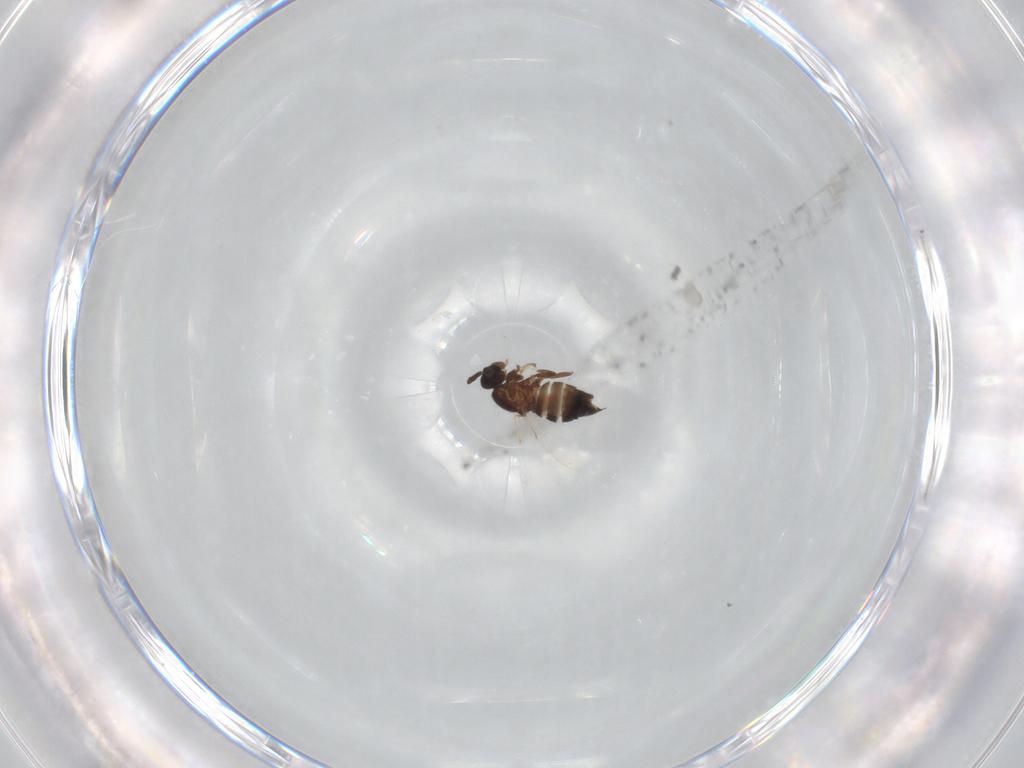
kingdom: Animalia
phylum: Arthropoda
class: Insecta
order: Diptera
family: Scatopsidae
